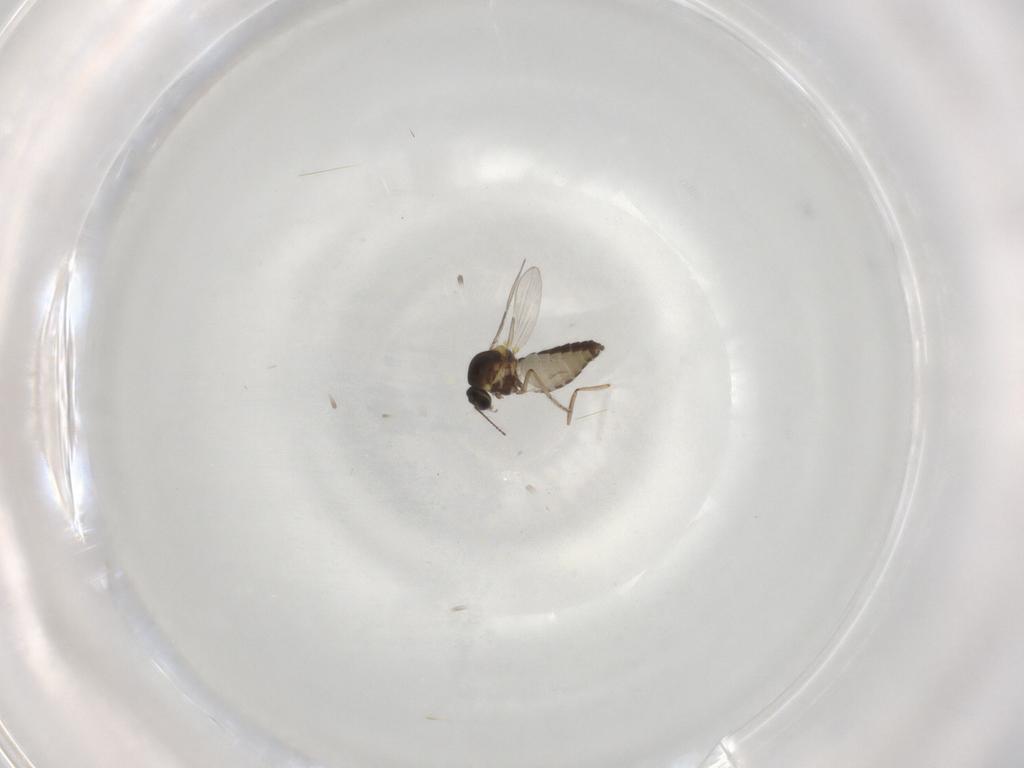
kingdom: Animalia
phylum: Arthropoda
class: Insecta
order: Diptera
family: Ceratopogonidae
